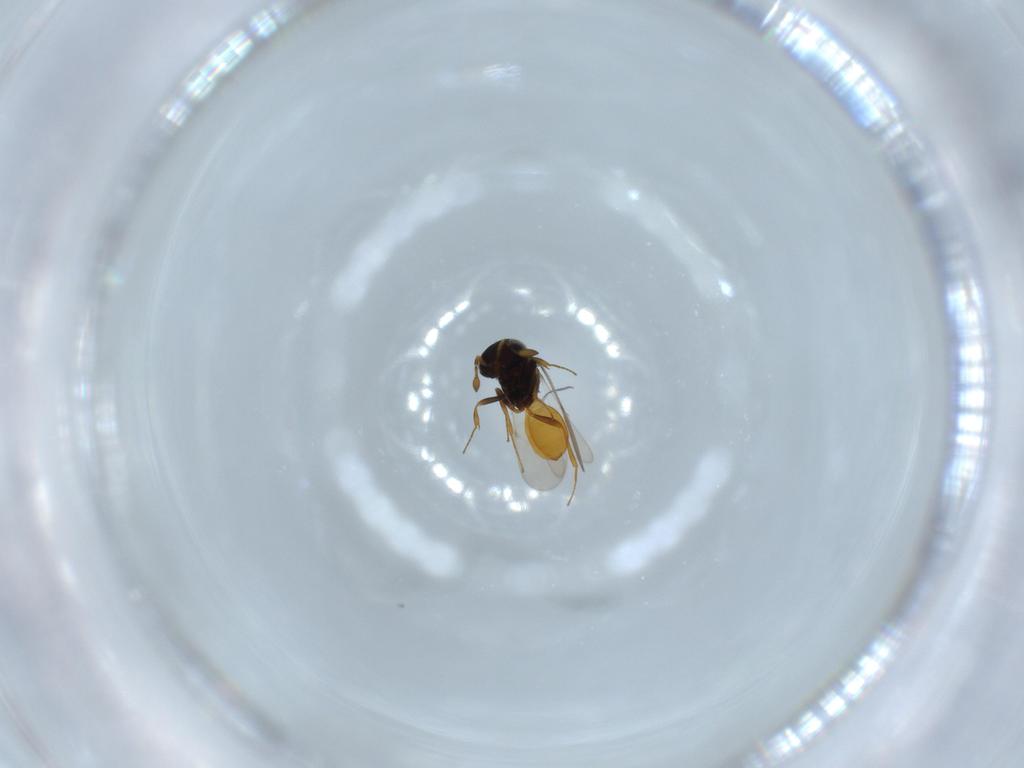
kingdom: Animalia
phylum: Arthropoda
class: Insecta
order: Hymenoptera
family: Scelionidae
